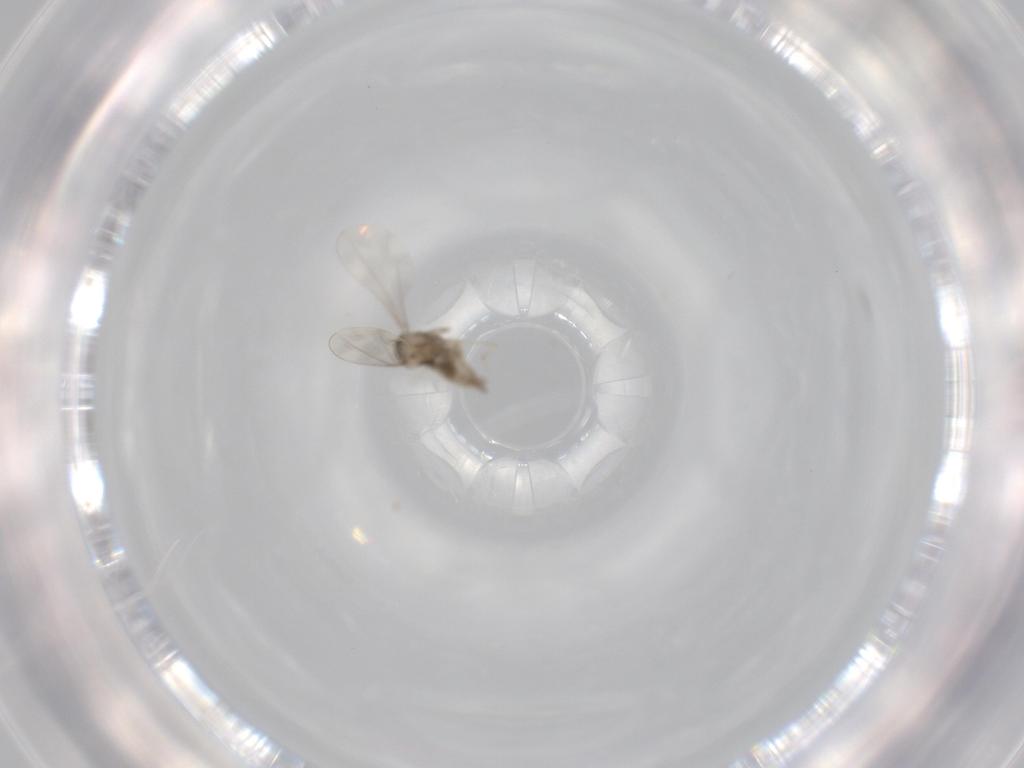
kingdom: Animalia
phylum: Arthropoda
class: Insecta
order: Diptera
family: Cecidomyiidae
